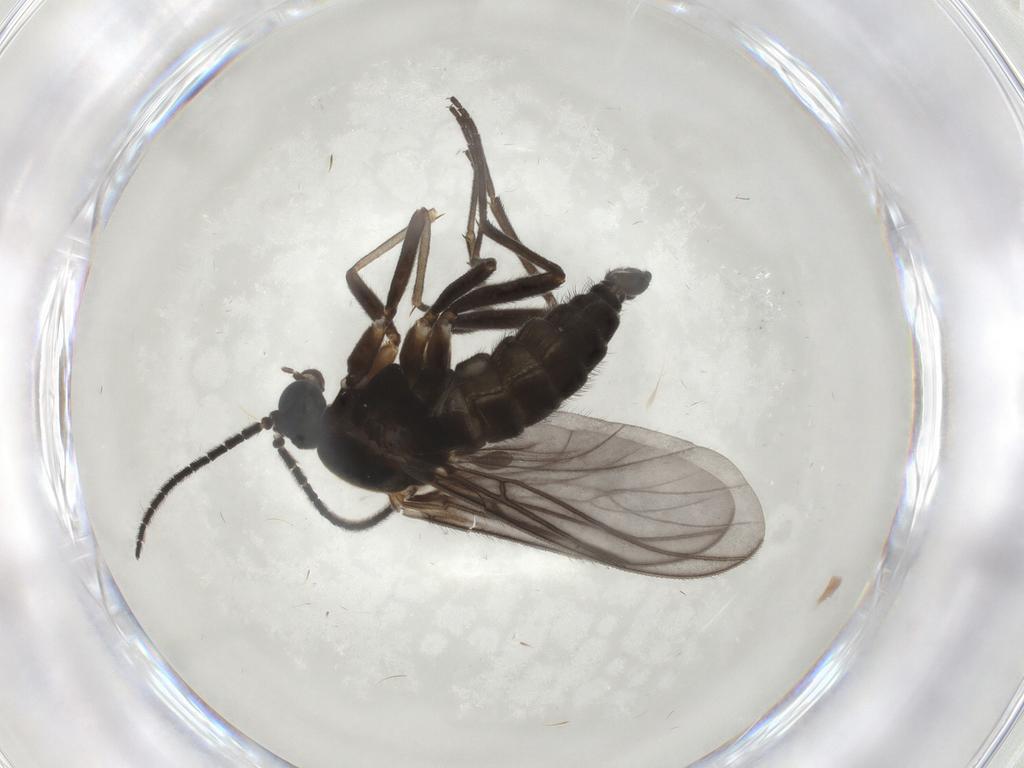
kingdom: Animalia
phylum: Arthropoda
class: Insecta
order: Diptera
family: Sciaridae
